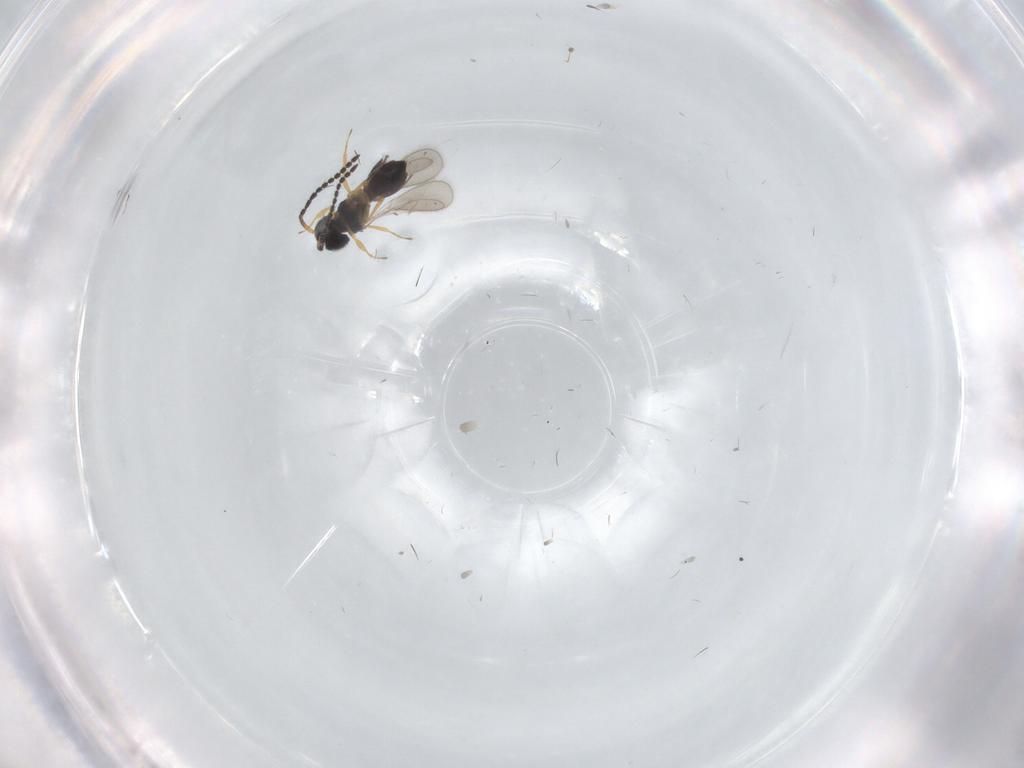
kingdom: Animalia
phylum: Arthropoda
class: Insecta
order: Hymenoptera
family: Scelionidae
